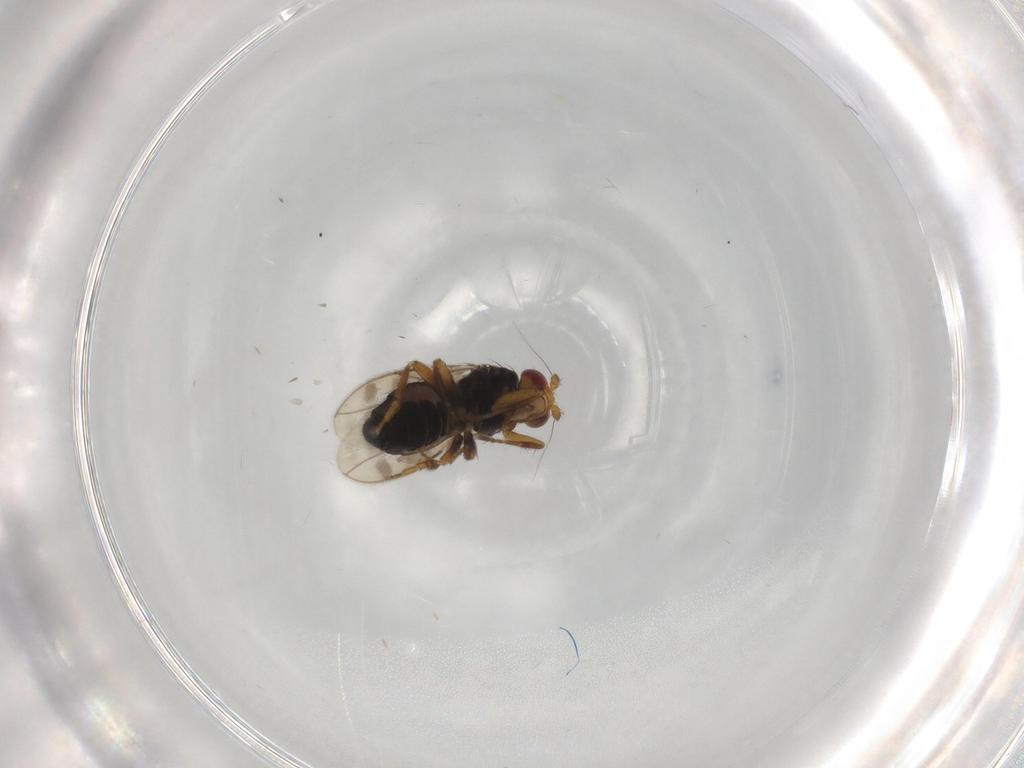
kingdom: Animalia
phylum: Arthropoda
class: Insecta
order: Diptera
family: Sphaeroceridae
